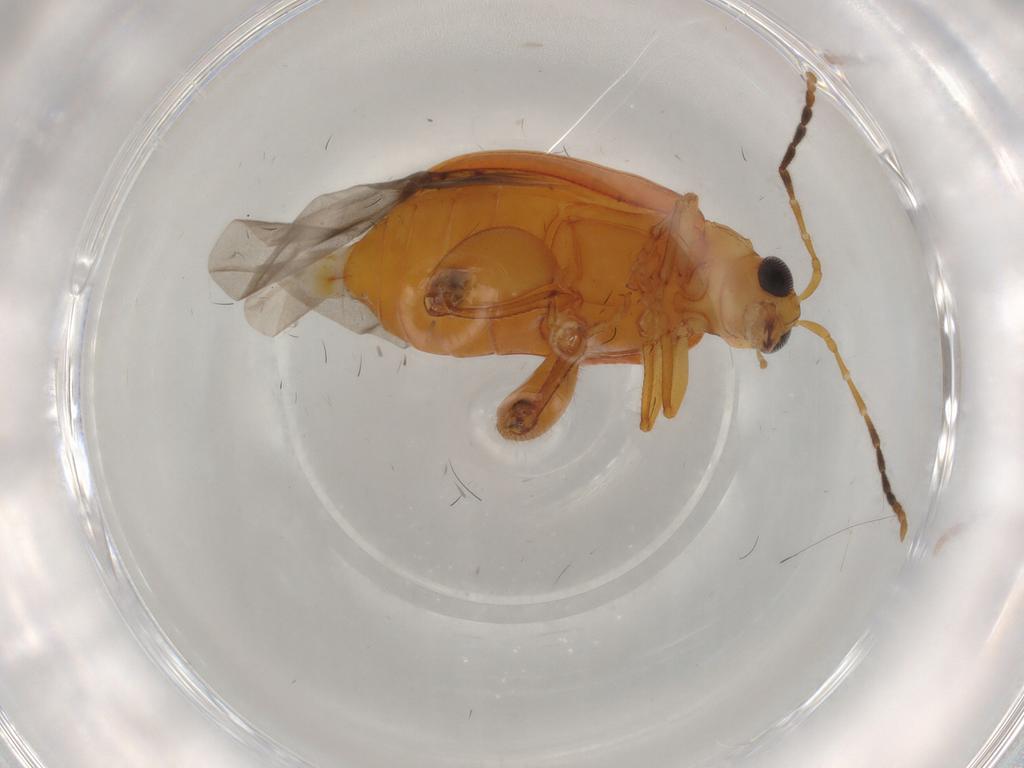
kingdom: Animalia
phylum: Arthropoda
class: Insecta
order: Coleoptera
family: Chrysomelidae
